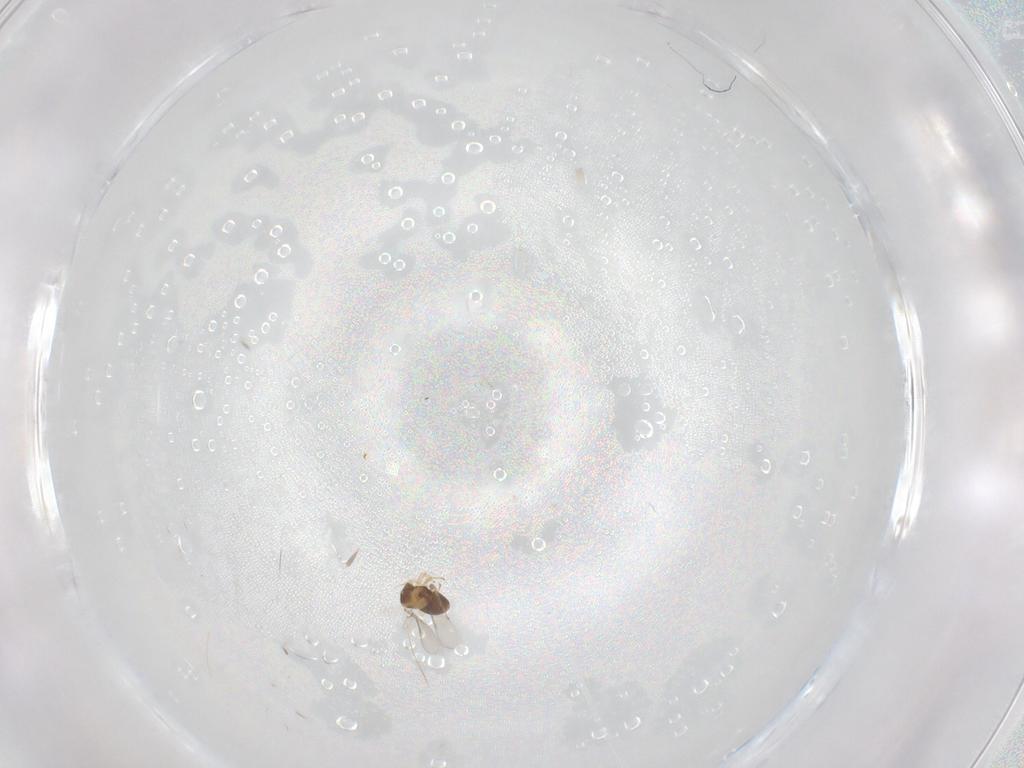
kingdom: Animalia
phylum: Arthropoda
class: Insecta
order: Hymenoptera
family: Aphelinidae
